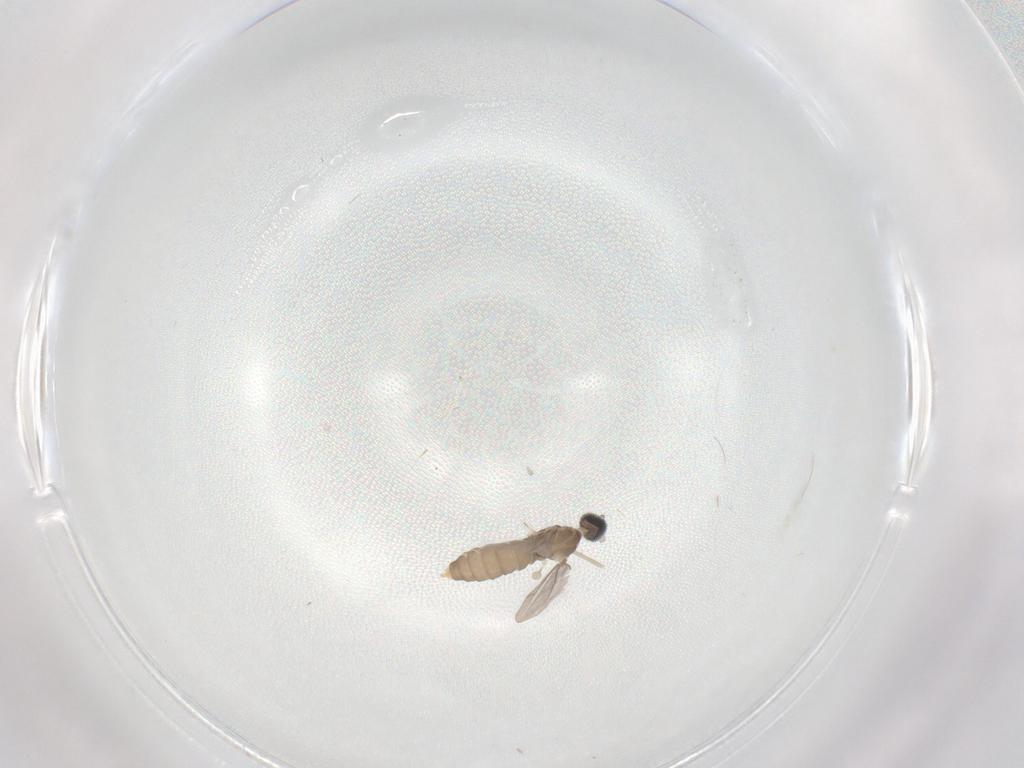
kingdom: Animalia
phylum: Arthropoda
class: Insecta
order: Diptera
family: Cecidomyiidae
